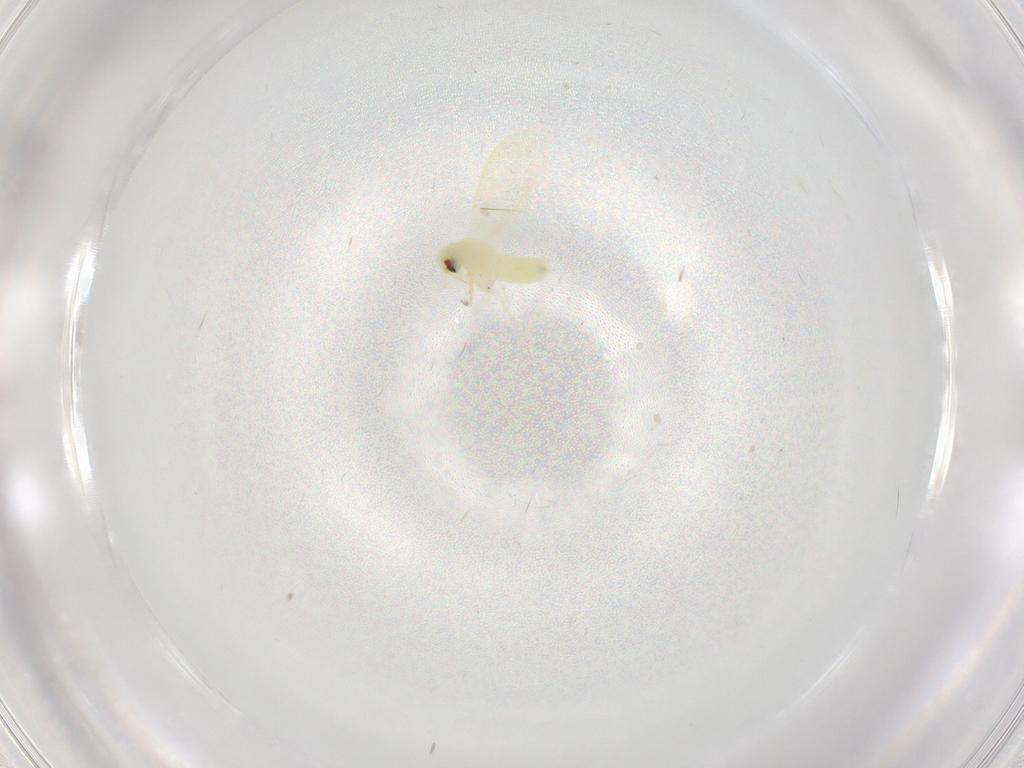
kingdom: Animalia
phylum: Arthropoda
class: Insecta
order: Hemiptera
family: Aleyrodidae
